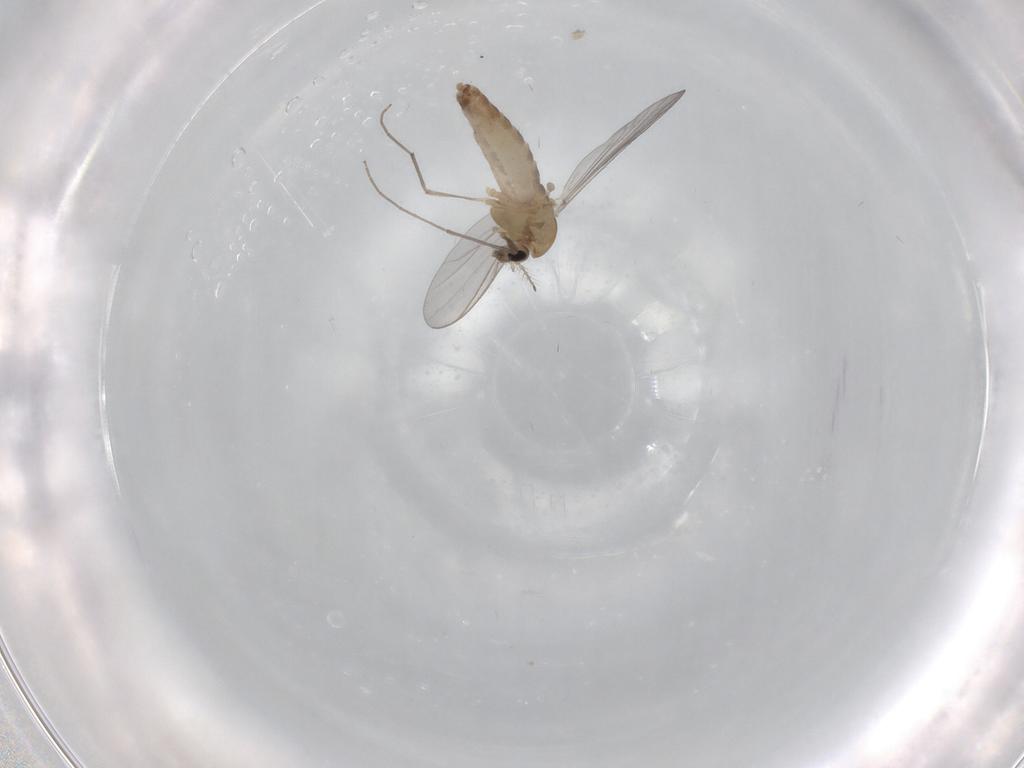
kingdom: Animalia
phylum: Arthropoda
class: Insecta
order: Diptera
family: Chironomidae
